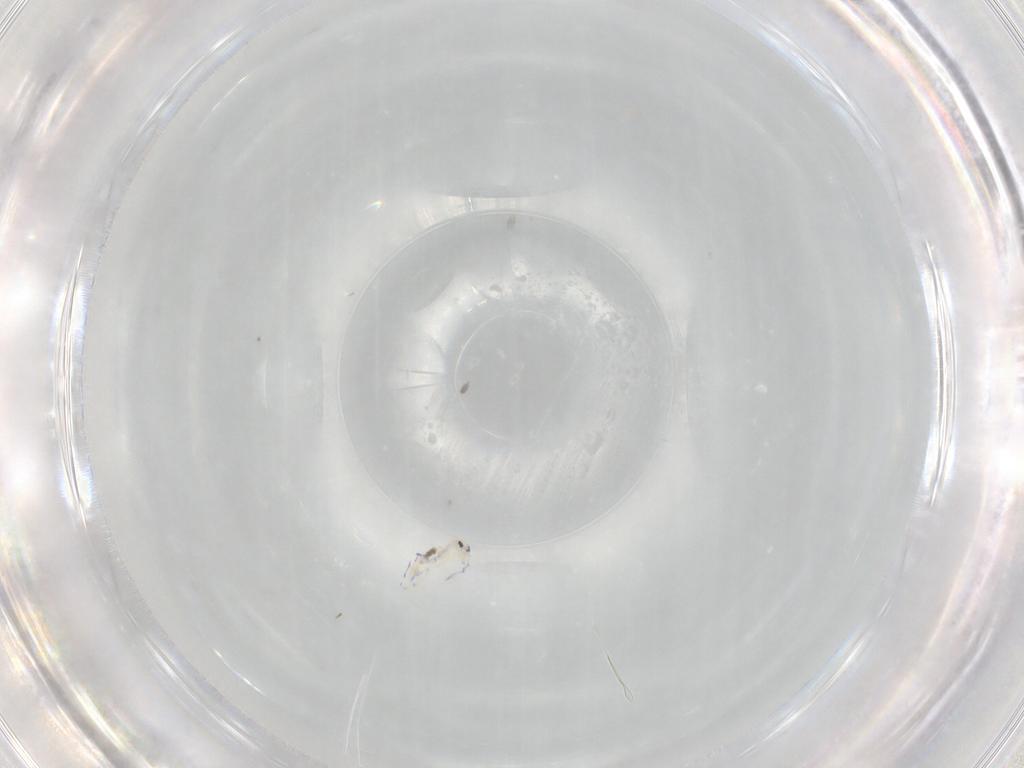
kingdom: Animalia
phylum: Arthropoda
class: Collembola
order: Entomobryomorpha
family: Entomobryidae
